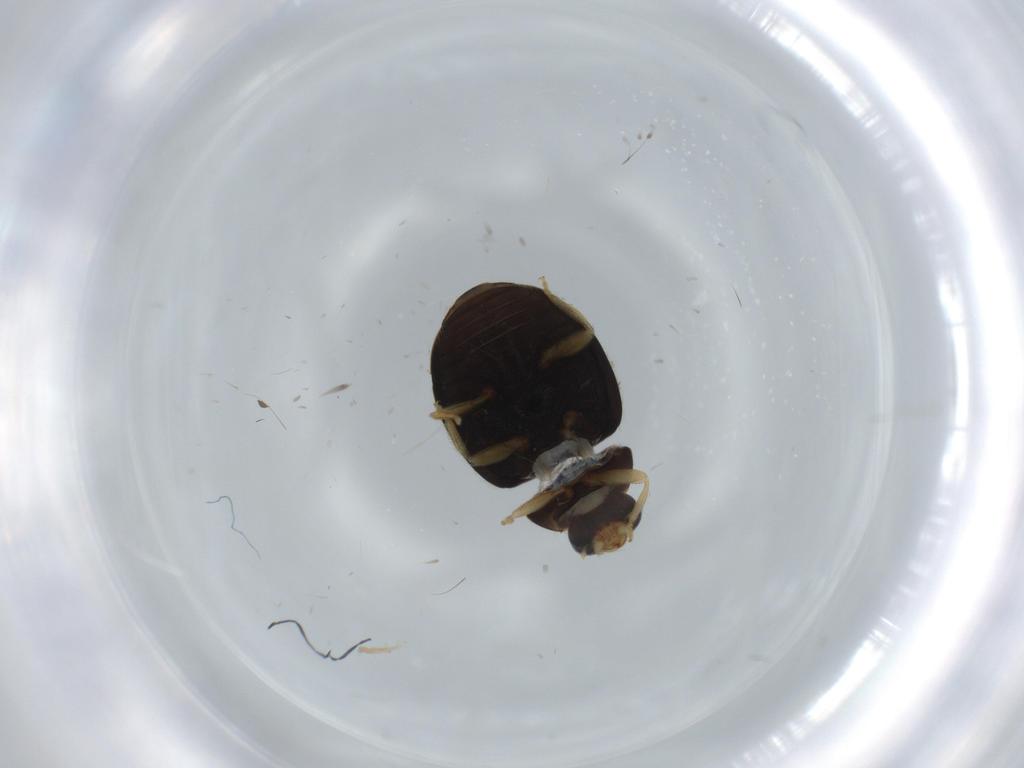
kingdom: Animalia
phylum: Arthropoda
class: Insecta
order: Coleoptera
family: Coccinellidae
